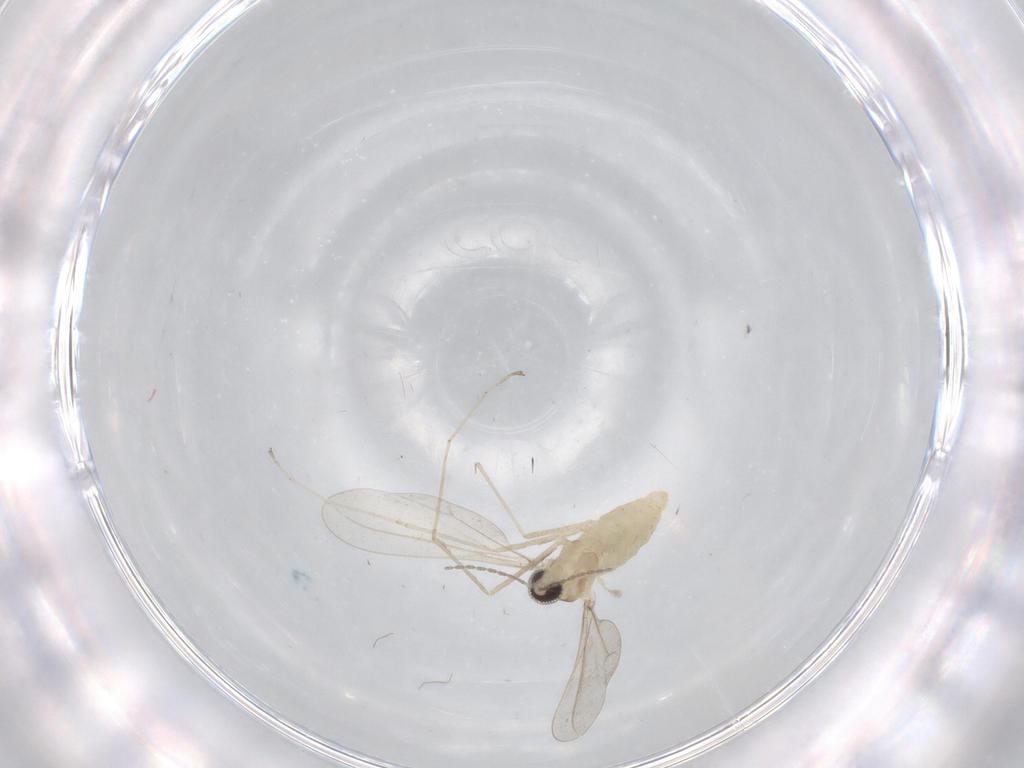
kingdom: Animalia
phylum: Arthropoda
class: Insecta
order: Diptera
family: Cecidomyiidae
